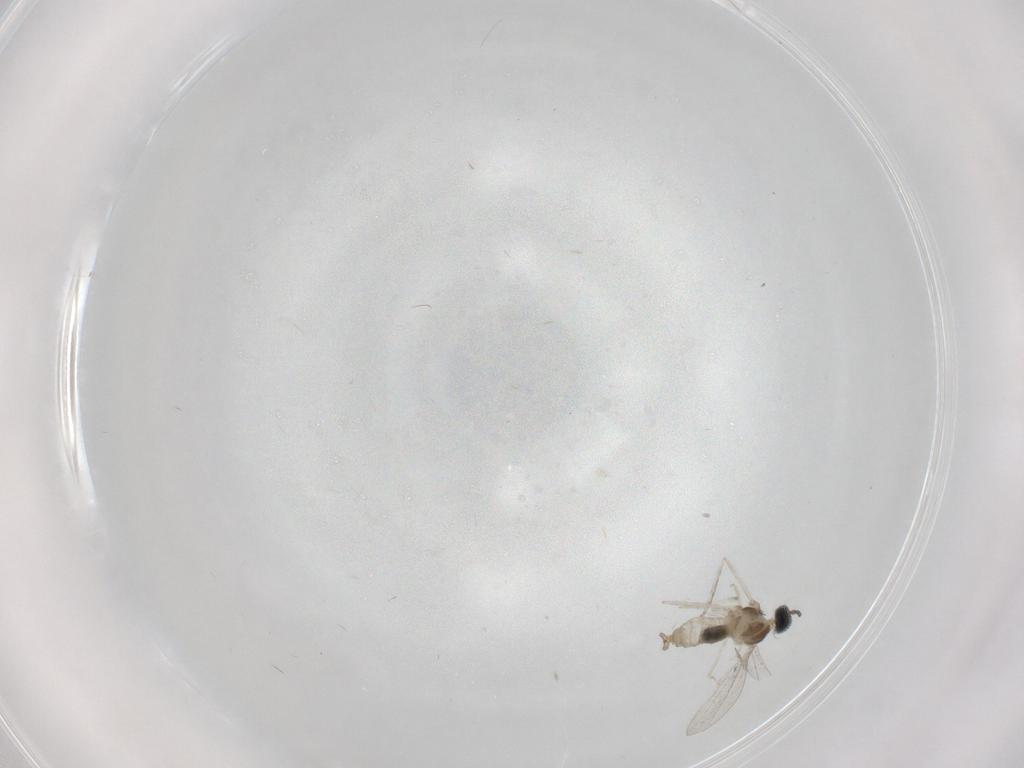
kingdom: Animalia
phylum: Arthropoda
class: Insecta
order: Diptera
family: Cecidomyiidae
